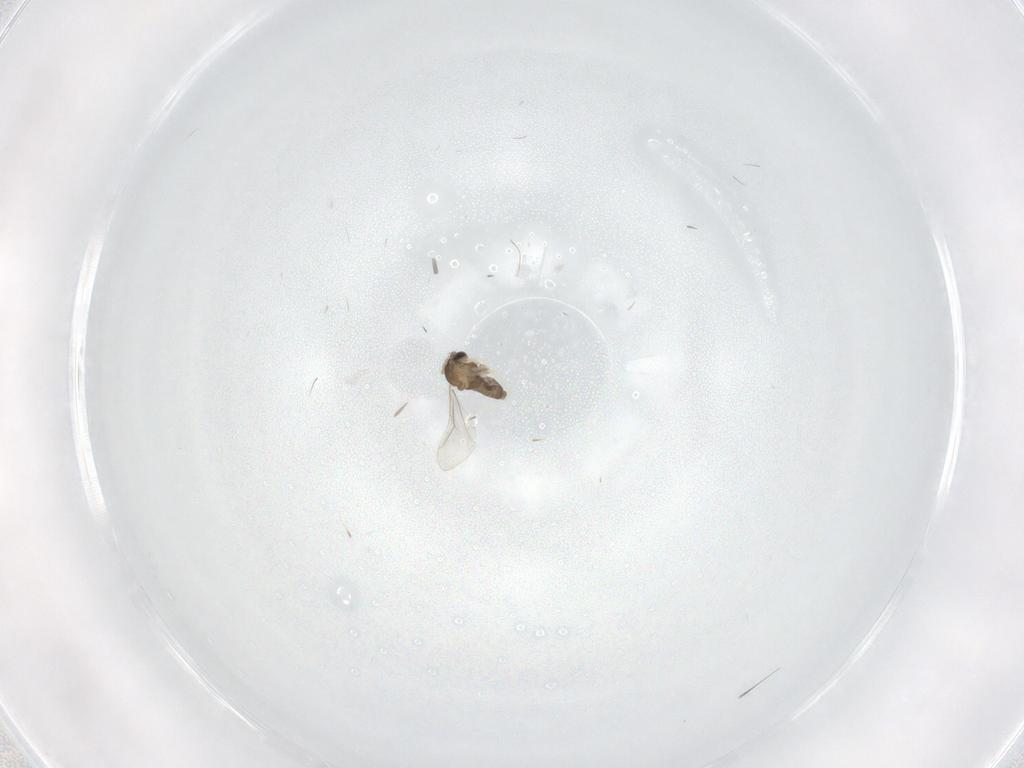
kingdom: Animalia
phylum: Arthropoda
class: Insecta
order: Diptera
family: Cecidomyiidae
